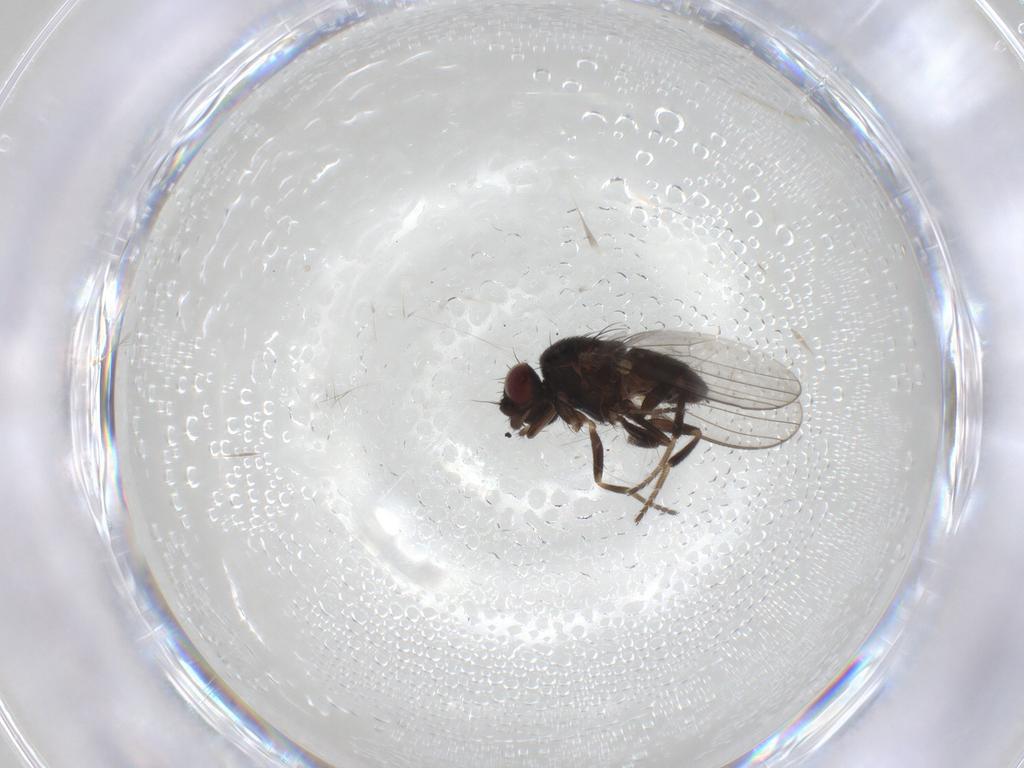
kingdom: Animalia
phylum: Arthropoda
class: Insecta
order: Diptera
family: Milichiidae
